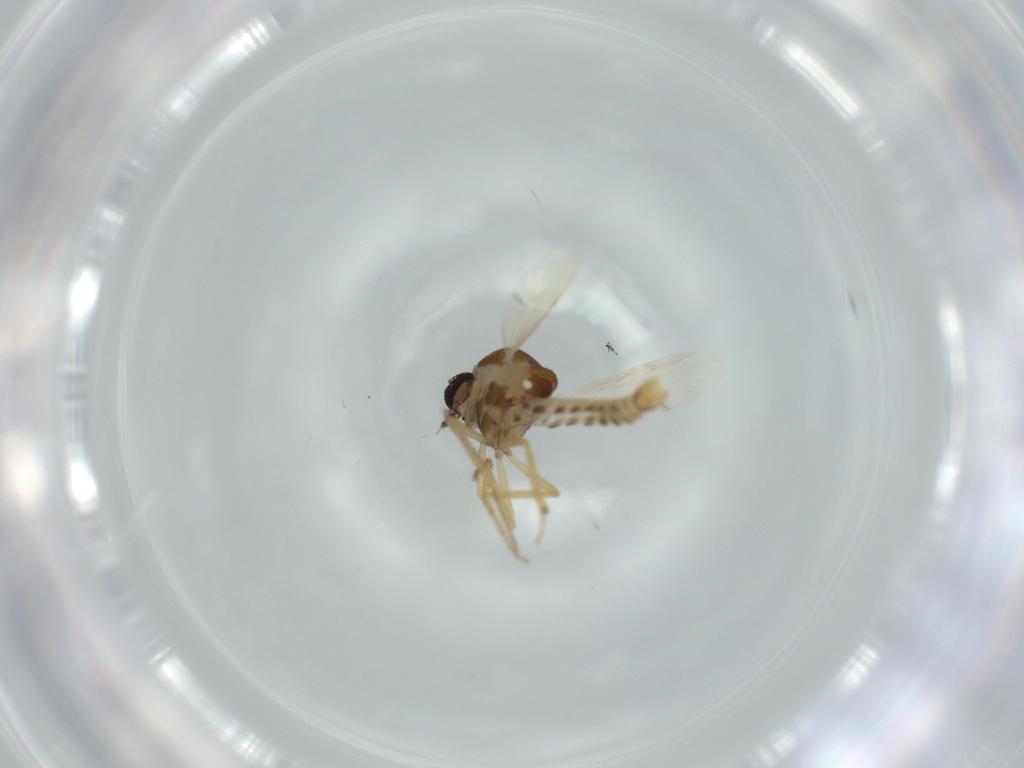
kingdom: Animalia
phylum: Arthropoda
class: Insecta
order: Diptera
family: Ceratopogonidae
